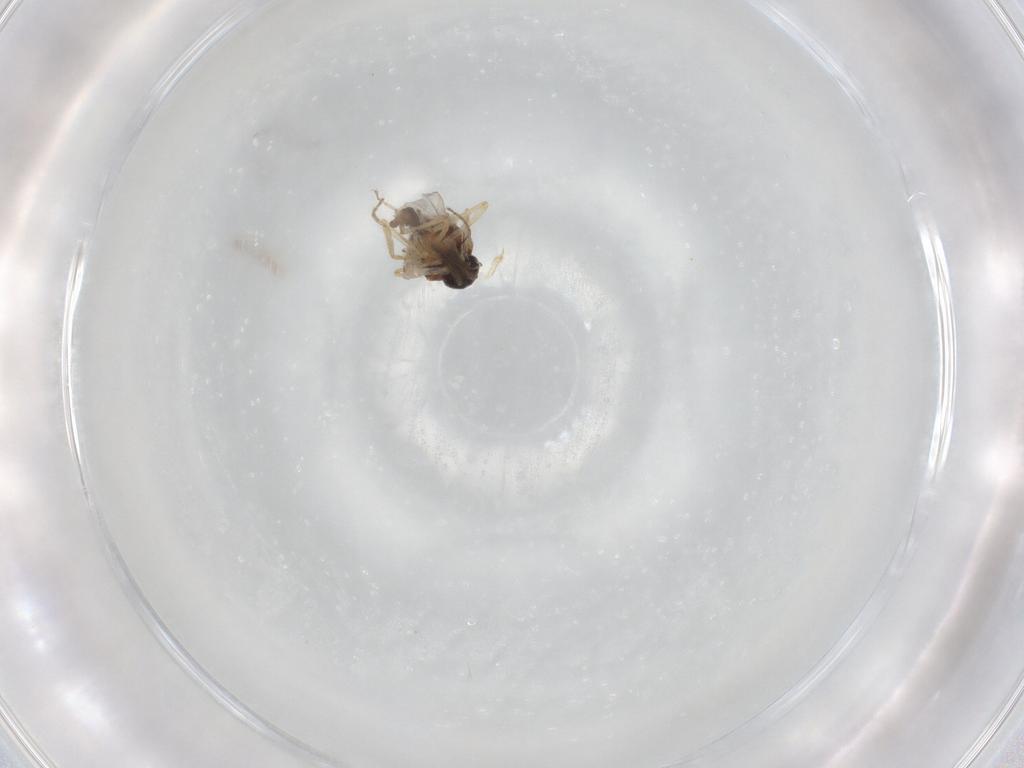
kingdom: Animalia
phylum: Arthropoda
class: Insecta
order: Diptera
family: Ceratopogonidae
